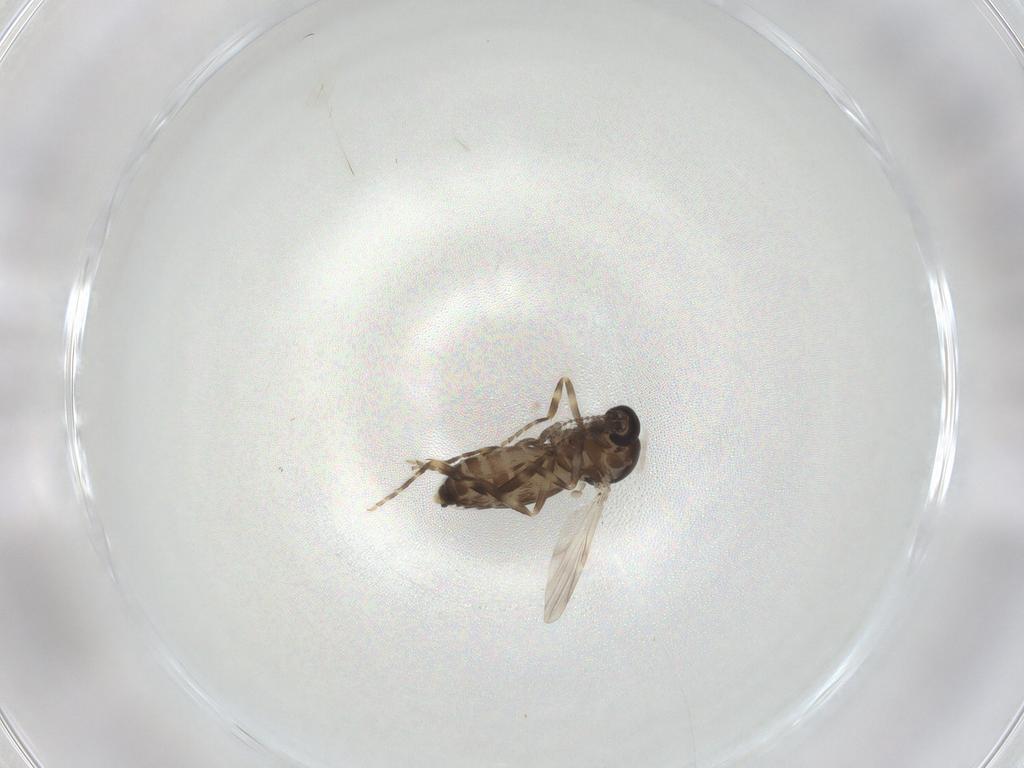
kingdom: Animalia
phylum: Arthropoda
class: Insecta
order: Diptera
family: Ceratopogonidae
